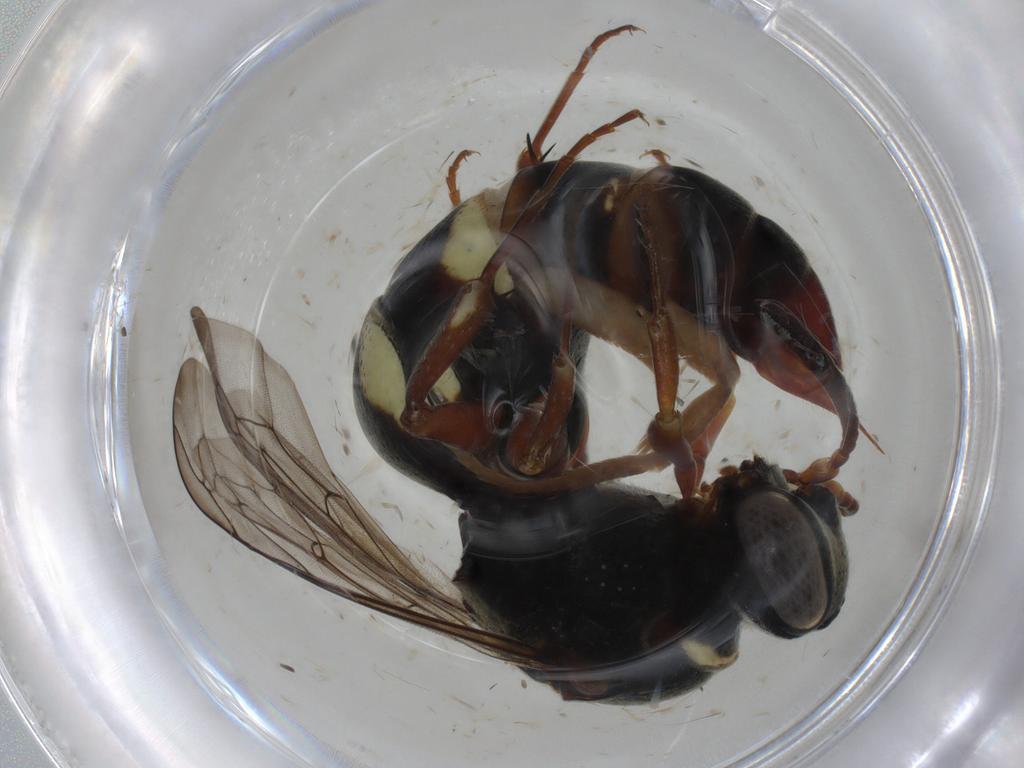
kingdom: Animalia
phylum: Arthropoda
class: Insecta
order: Hymenoptera
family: Bembicidae
